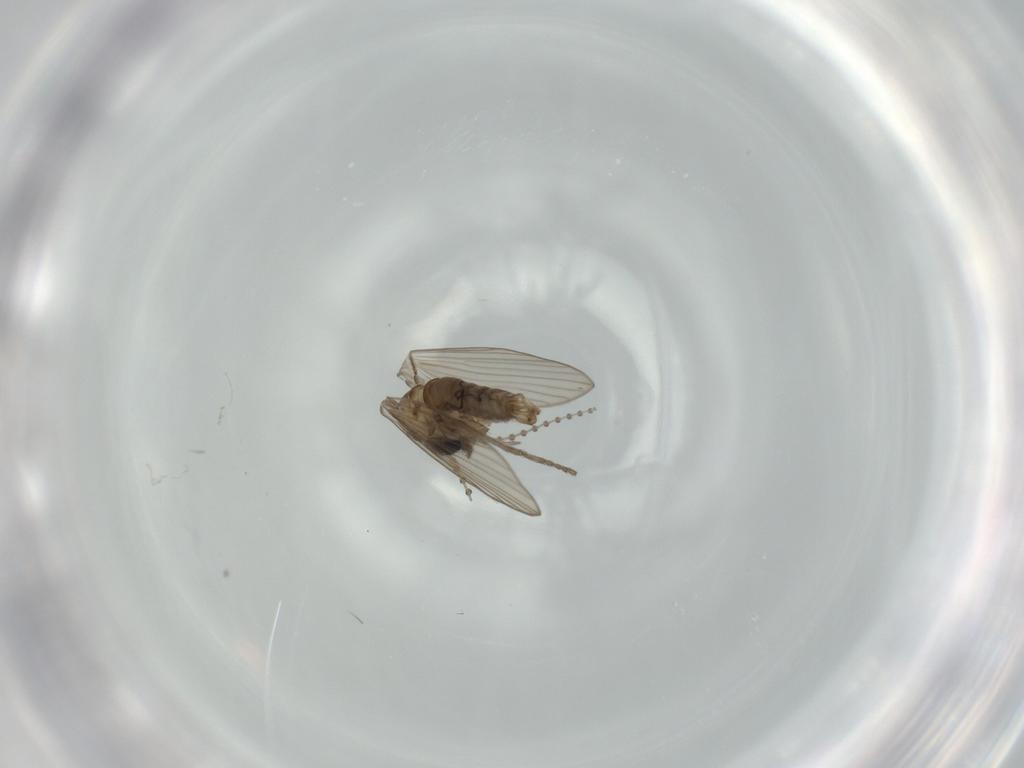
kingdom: Animalia
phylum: Arthropoda
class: Insecta
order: Diptera
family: Psychodidae
